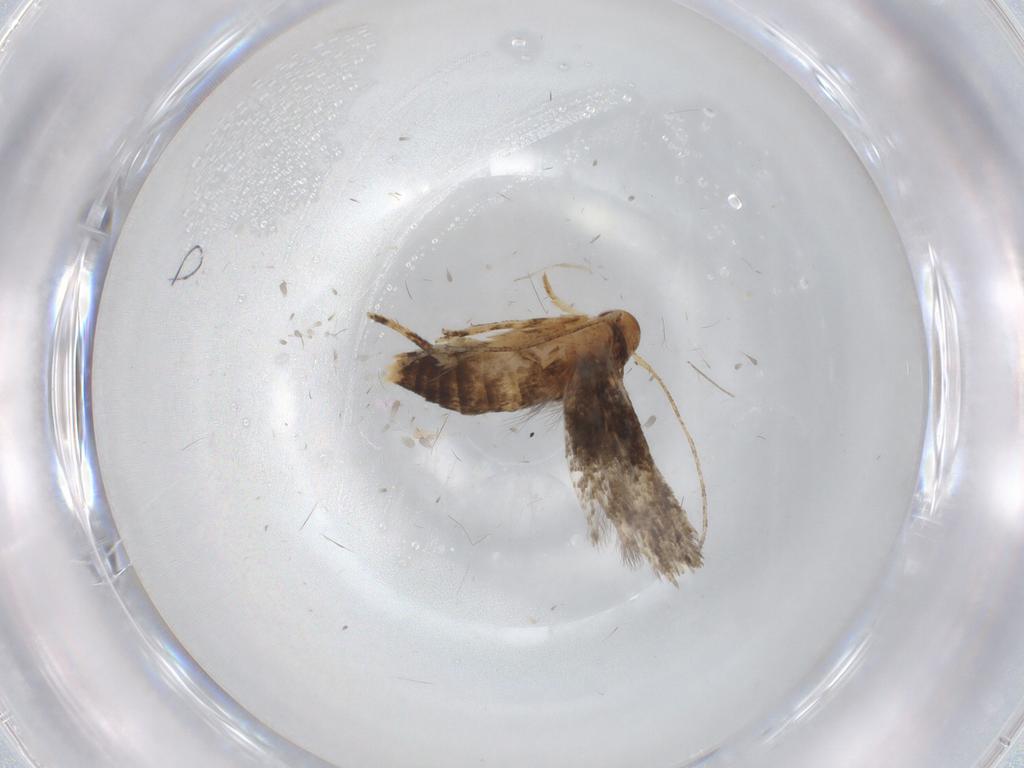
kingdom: Animalia
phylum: Arthropoda
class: Insecta
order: Lepidoptera
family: Momphidae
